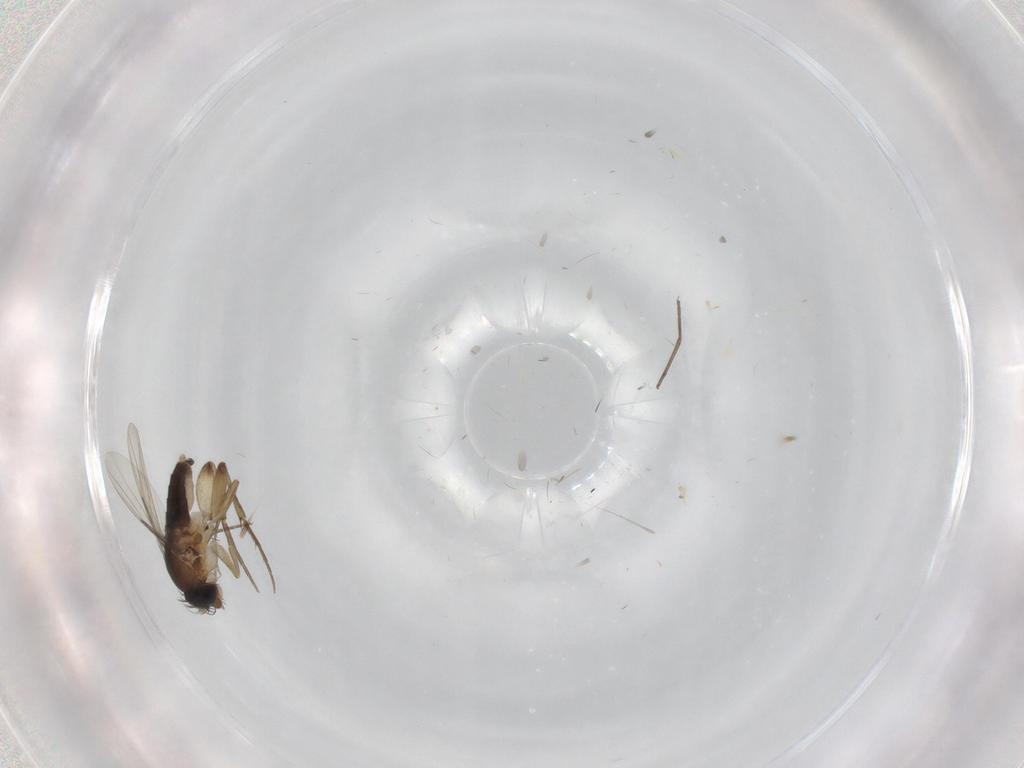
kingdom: Animalia
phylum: Arthropoda
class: Insecta
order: Diptera
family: Phoridae
